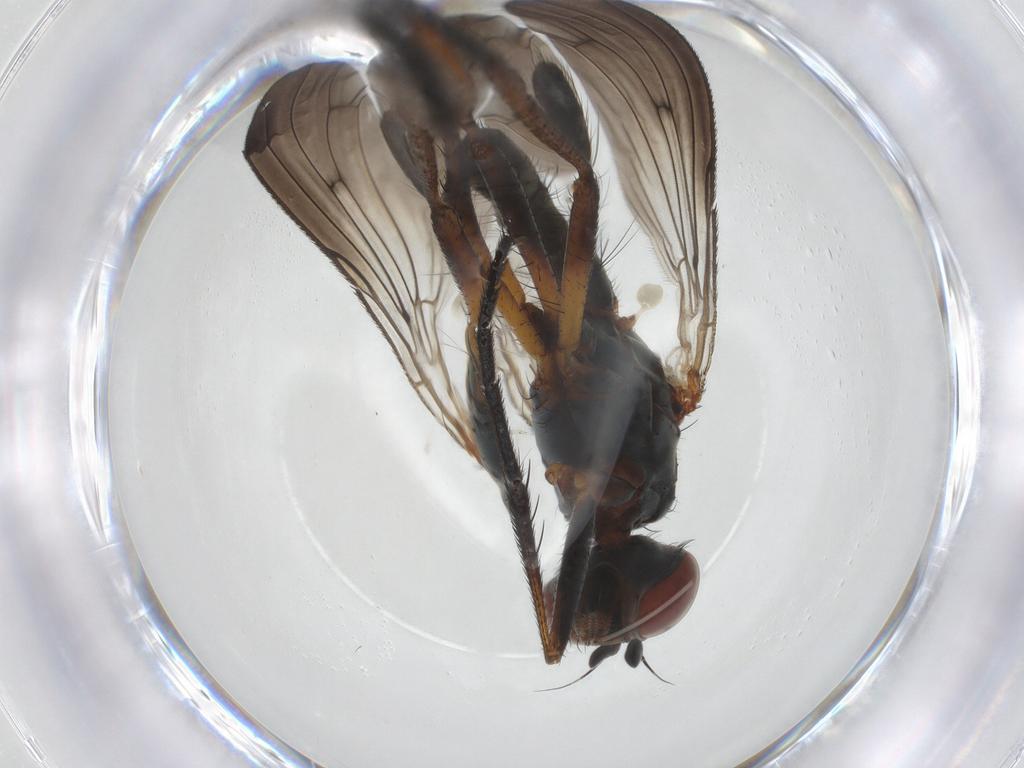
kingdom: Animalia
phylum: Arthropoda
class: Insecta
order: Diptera
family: Anthomyiidae
